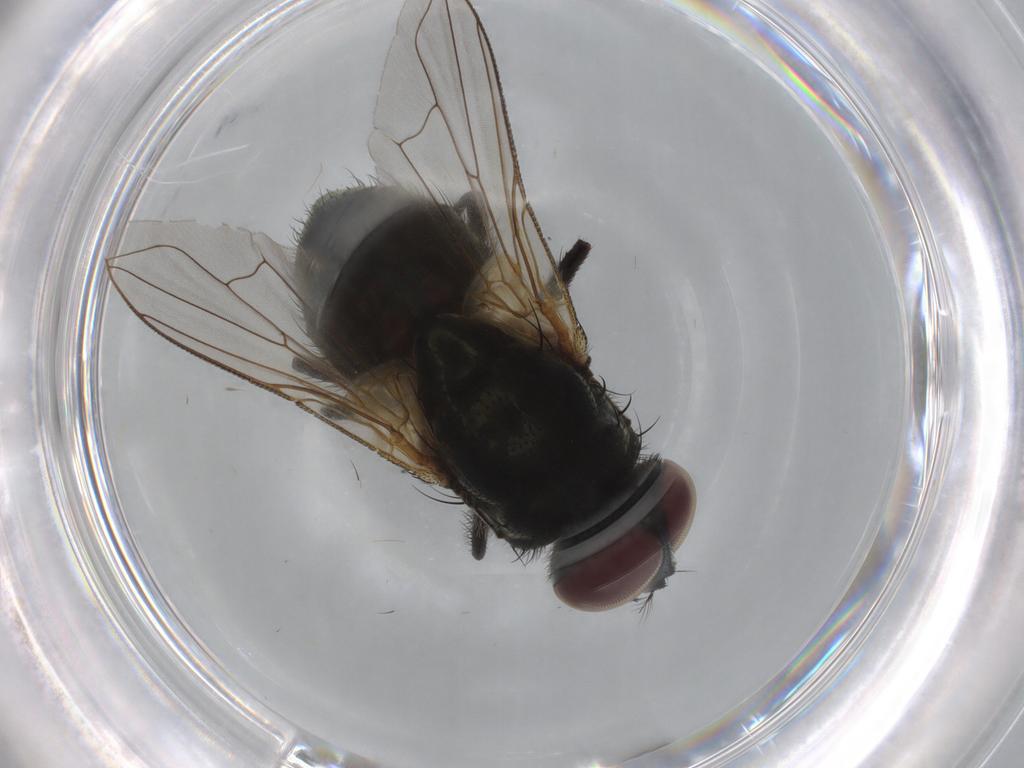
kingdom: Animalia
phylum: Arthropoda
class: Insecta
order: Diptera
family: Muscidae
